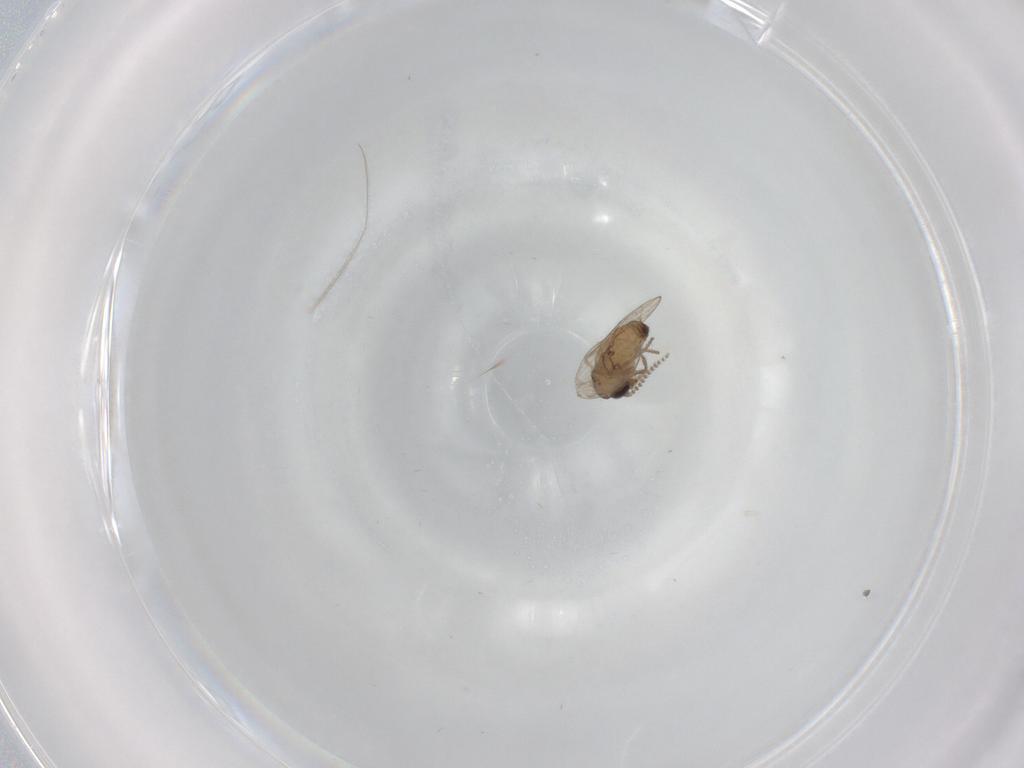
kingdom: Animalia
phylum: Arthropoda
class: Insecta
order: Diptera
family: Psychodidae
